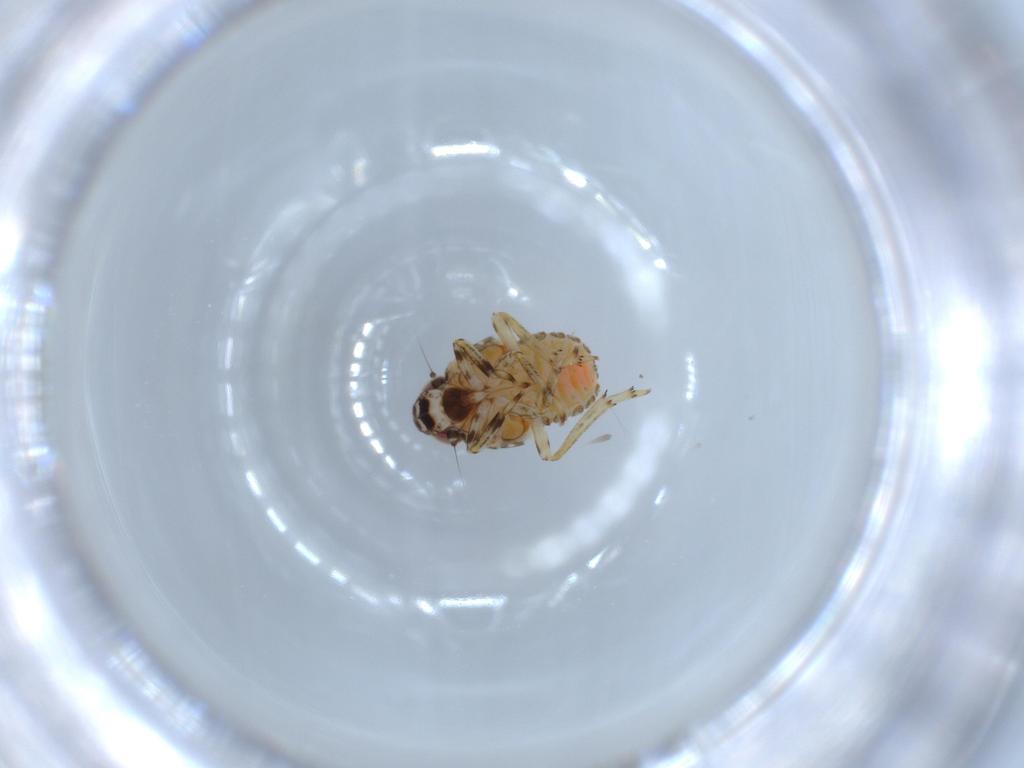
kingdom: Animalia
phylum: Arthropoda
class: Insecta
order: Hemiptera
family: Issidae
